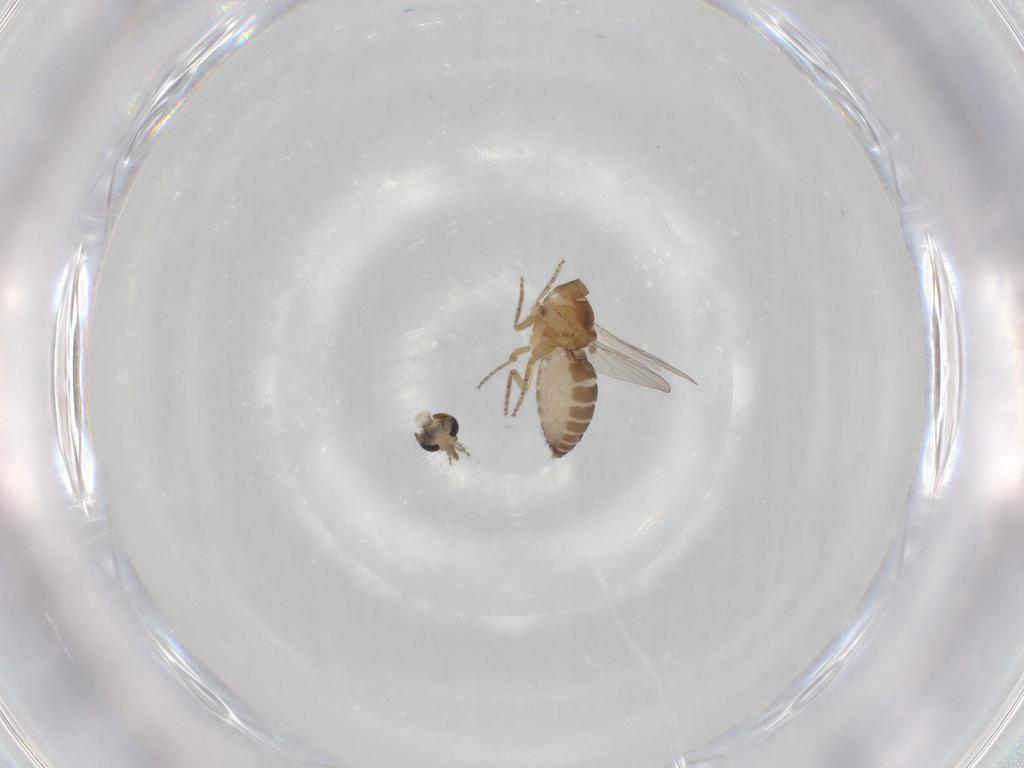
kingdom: Animalia
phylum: Arthropoda
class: Insecta
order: Diptera
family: Ceratopogonidae
